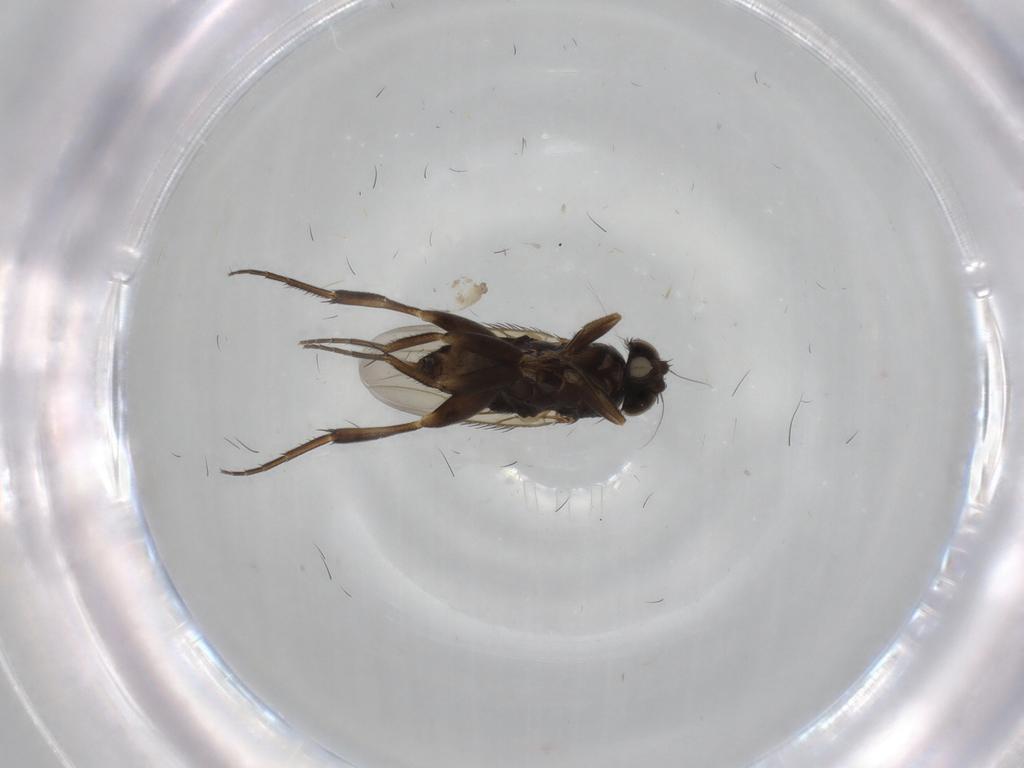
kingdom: Animalia
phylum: Arthropoda
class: Insecta
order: Diptera
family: Phoridae
